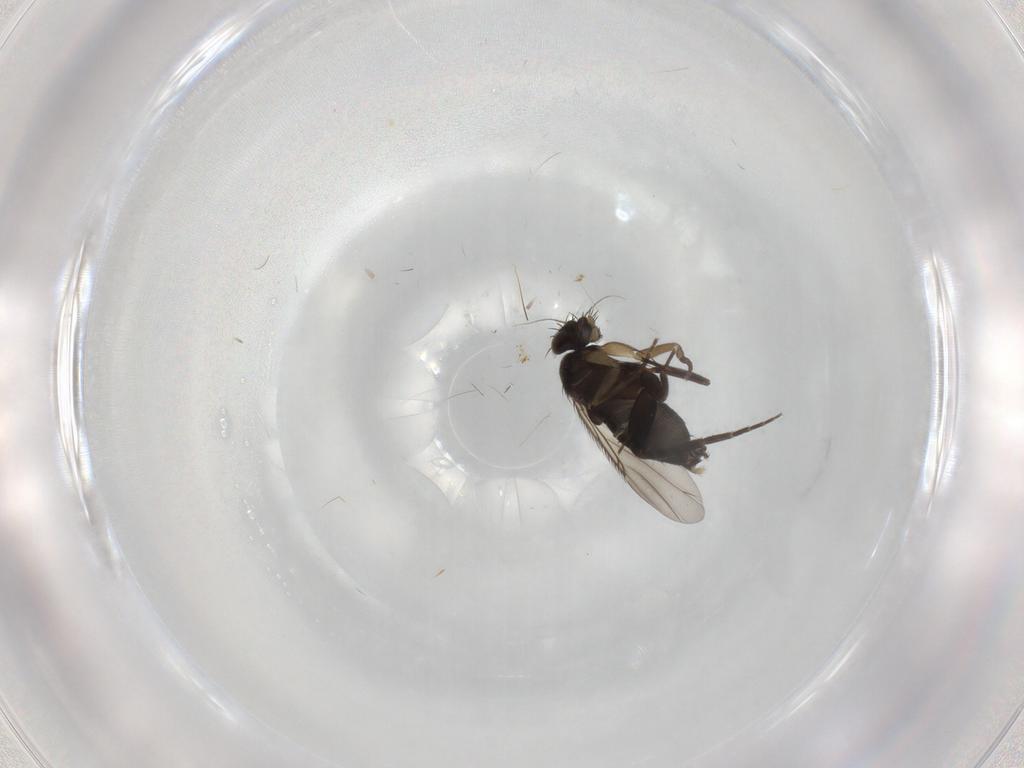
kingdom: Animalia
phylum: Arthropoda
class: Insecta
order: Diptera
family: Phoridae
